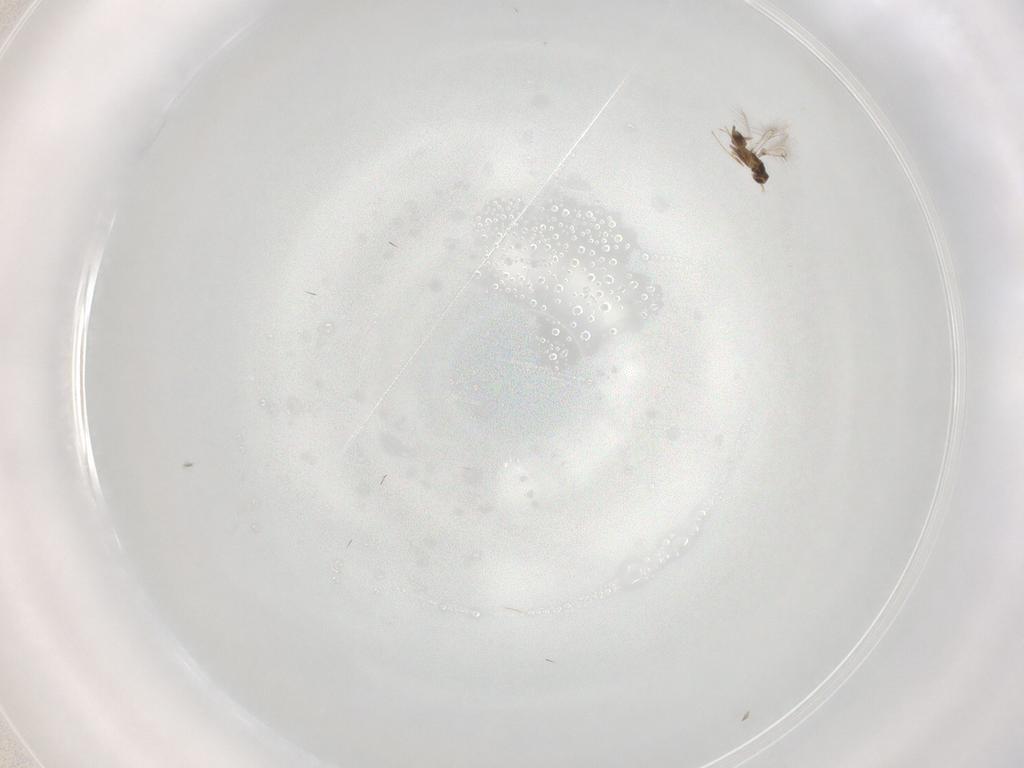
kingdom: Animalia
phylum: Arthropoda
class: Insecta
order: Hymenoptera
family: Mymaridae
